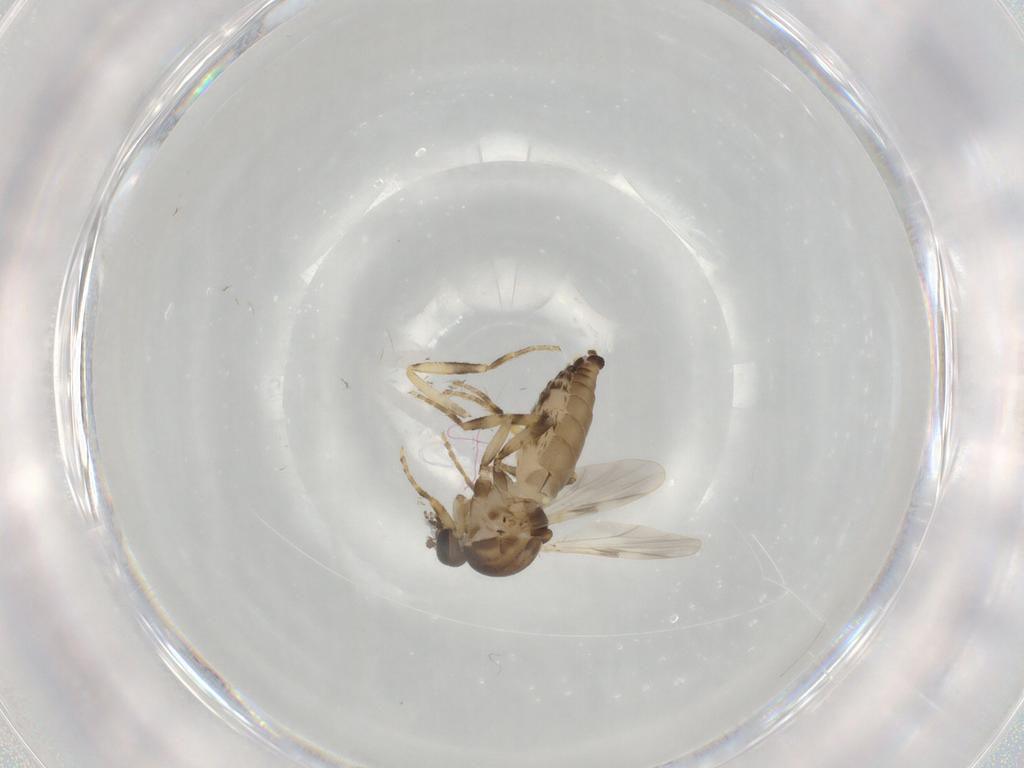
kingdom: Animalia
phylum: Arthropoda
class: Insecta
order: Diptera
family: Ceratopogonidae
